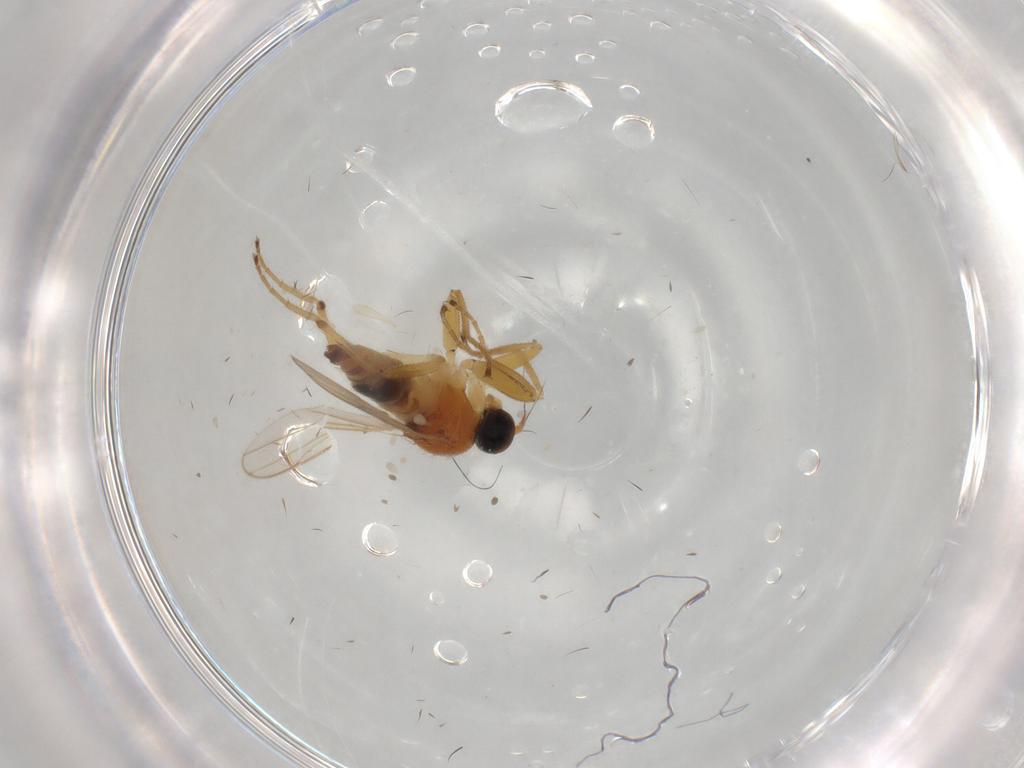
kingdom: Animalia
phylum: Arthropoda
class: Insecta
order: Diptera
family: Hybotidae
